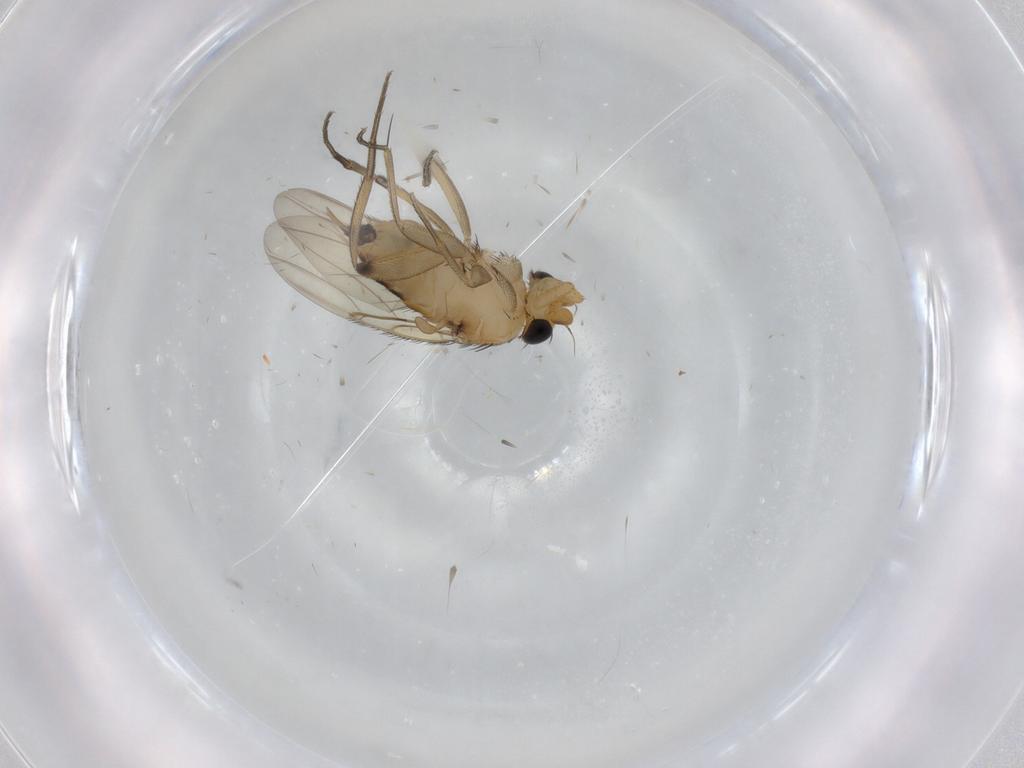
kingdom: Animalia
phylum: Arthropoda
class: Insecta
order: Diptera
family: Phoridae
